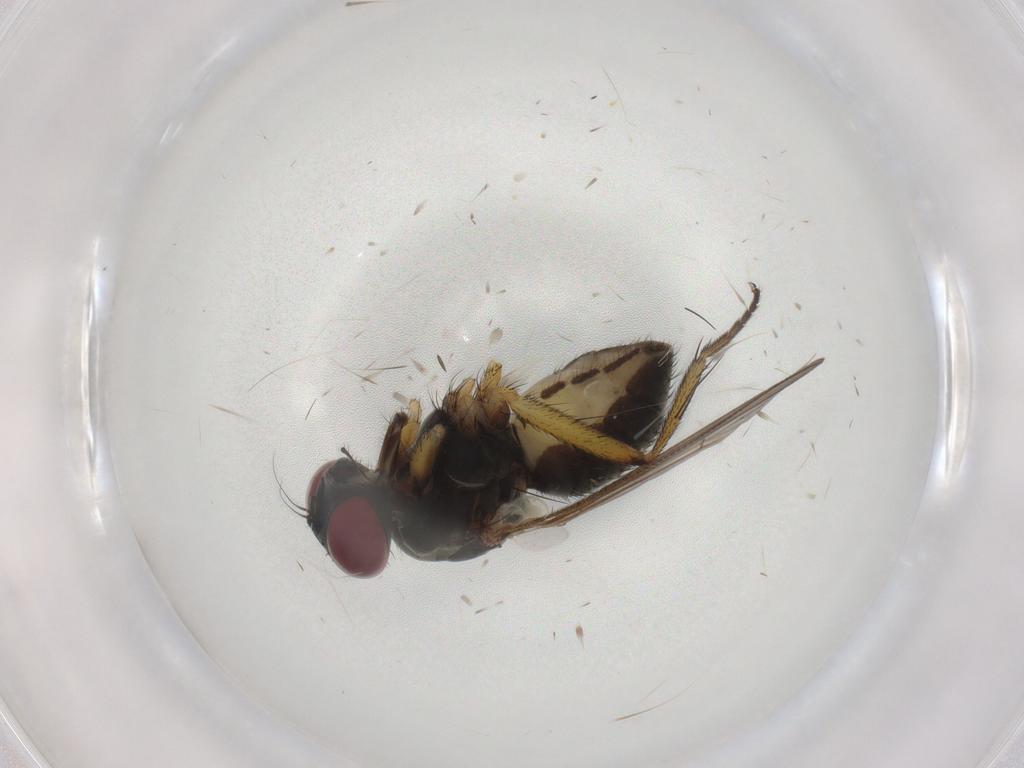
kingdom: Animalia
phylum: Arthropoda
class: Insecta
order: Diptera
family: Muscidae
